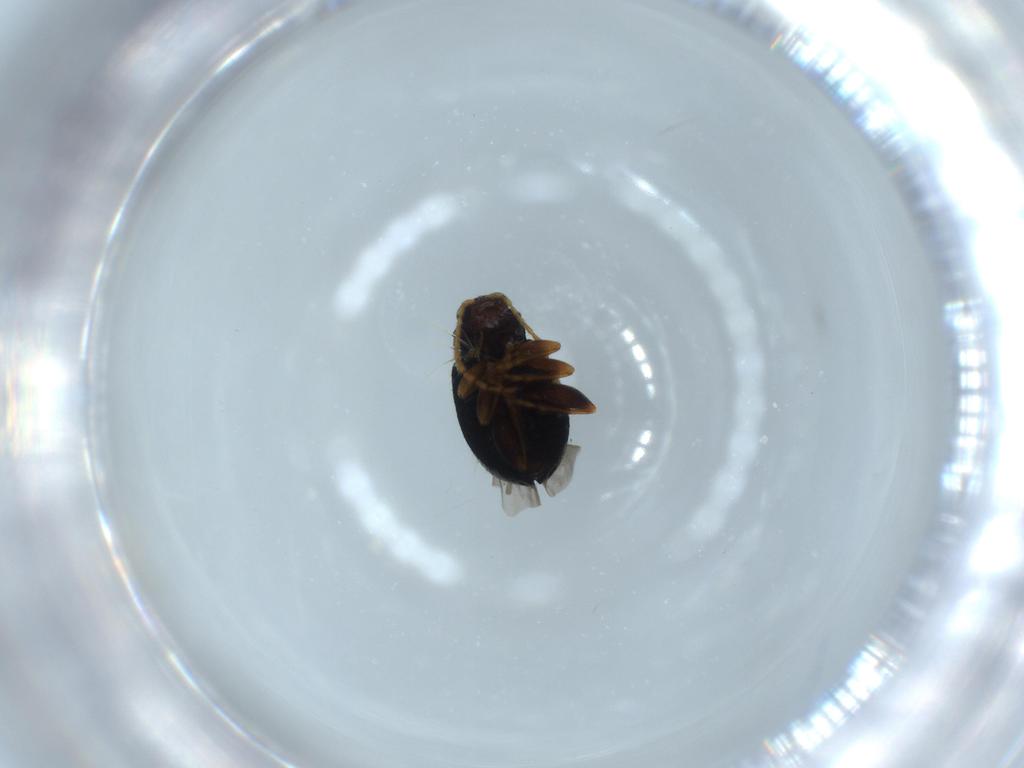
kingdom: Animalia
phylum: Arthropoda
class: Insecta
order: Coleoptera
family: Chrysomelidae
